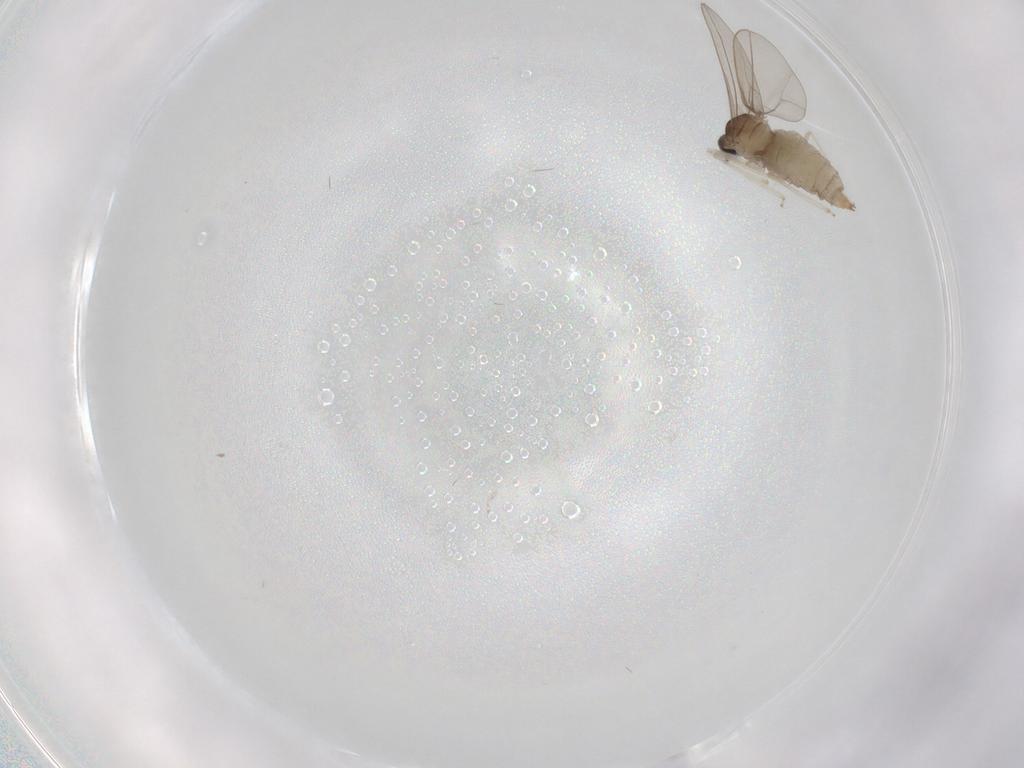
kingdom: Animalia
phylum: Arthropoda
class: Insecta
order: Diptera
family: Cecidomyiidae
